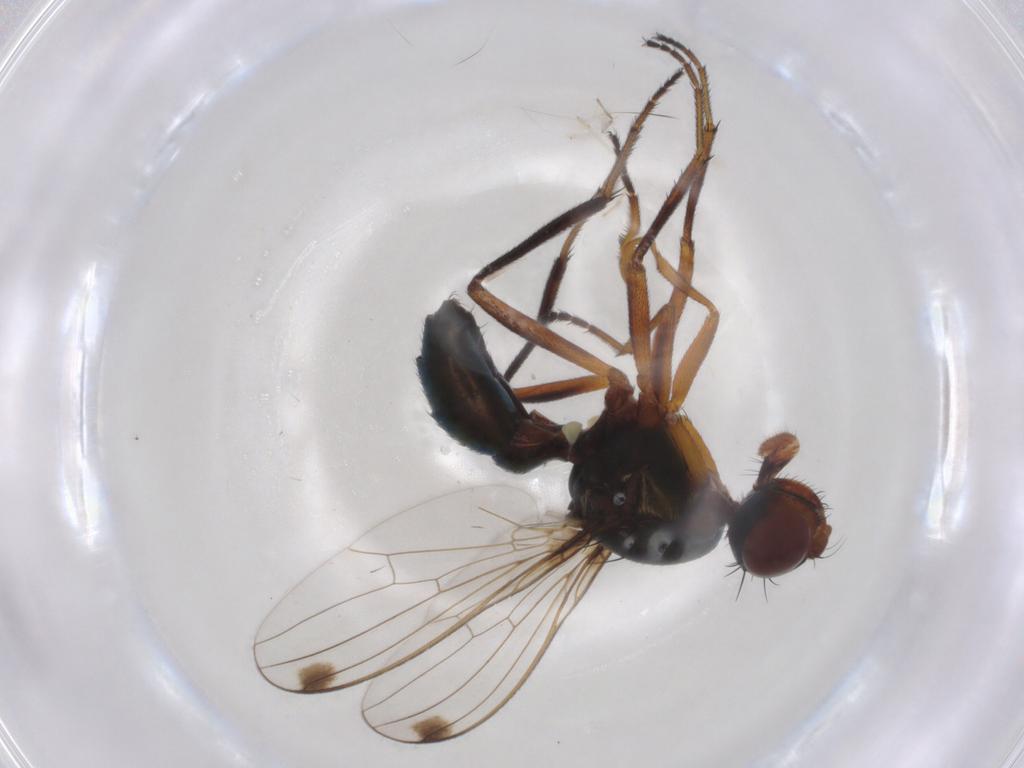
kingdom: Animalia
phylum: Arthropoda
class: Insecta
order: Diptera
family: Sepsidae
